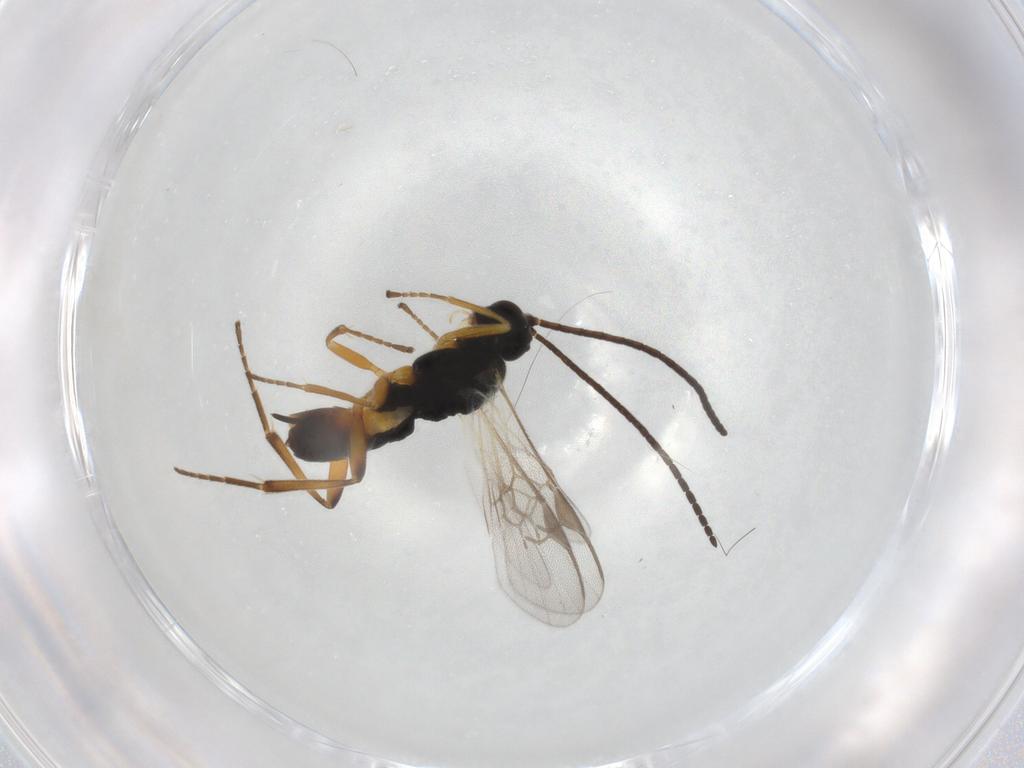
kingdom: Animalia
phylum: Arthropoda
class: Insecta
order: Hymenoptera
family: Braconidae
